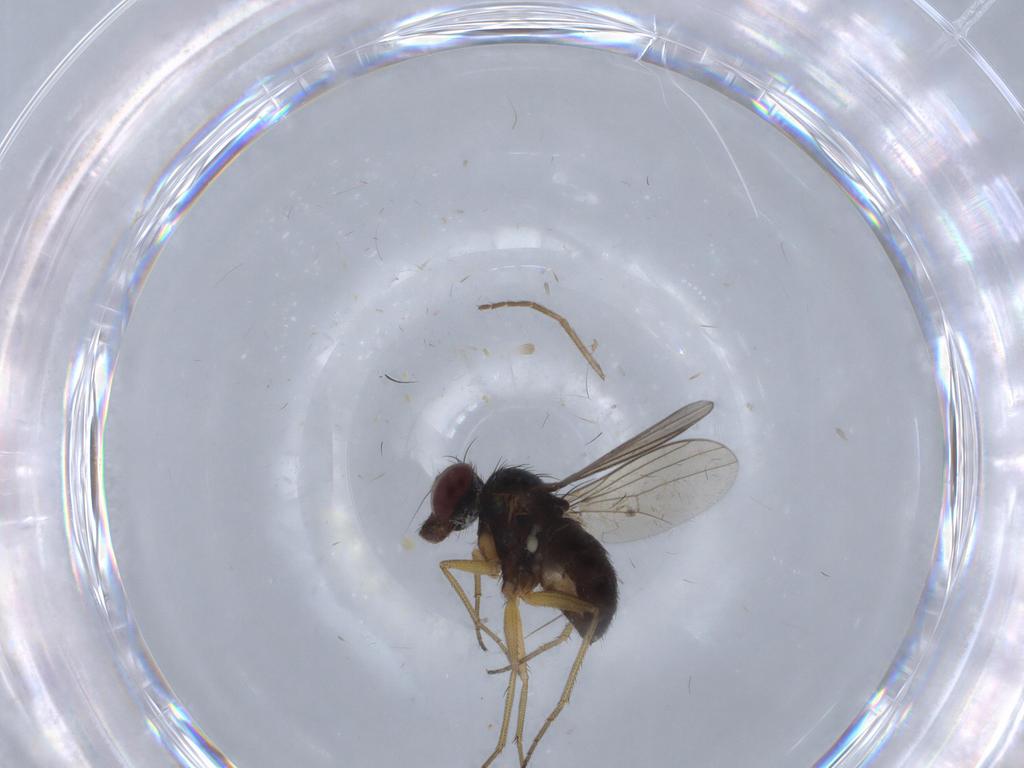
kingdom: Animalia
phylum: Arthropoda
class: Insecta
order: Diptera
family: Dolichopodidae
